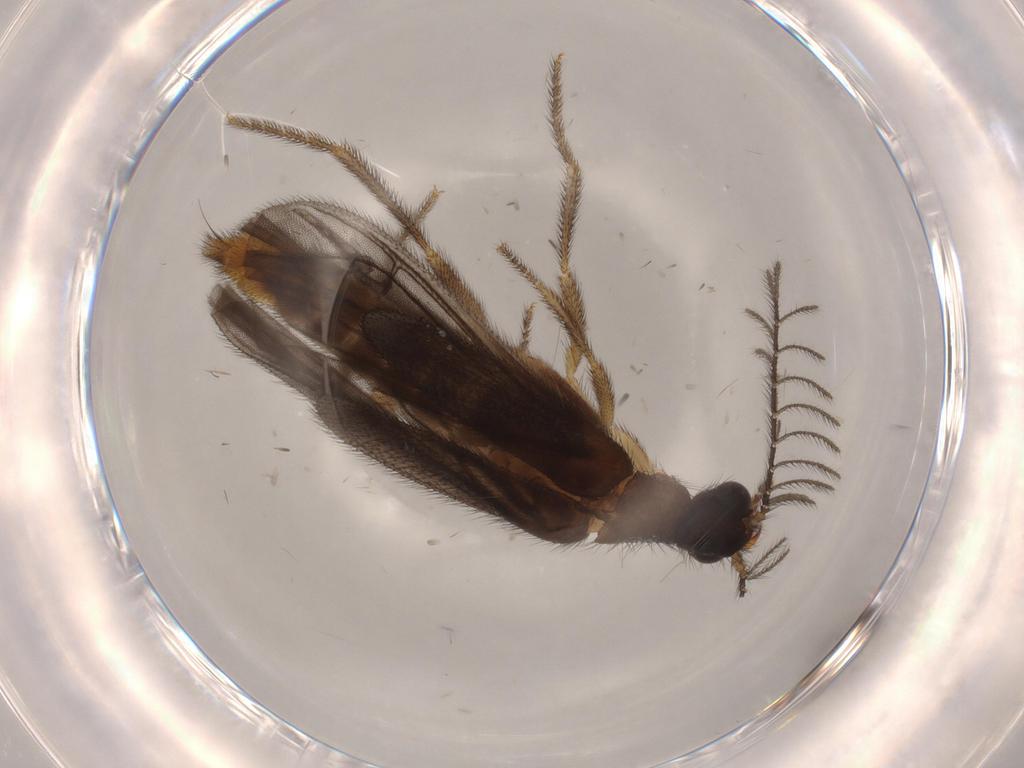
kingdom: Animalia
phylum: Arthropoda
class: Insecta
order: Coleoptera
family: Phengodidae
